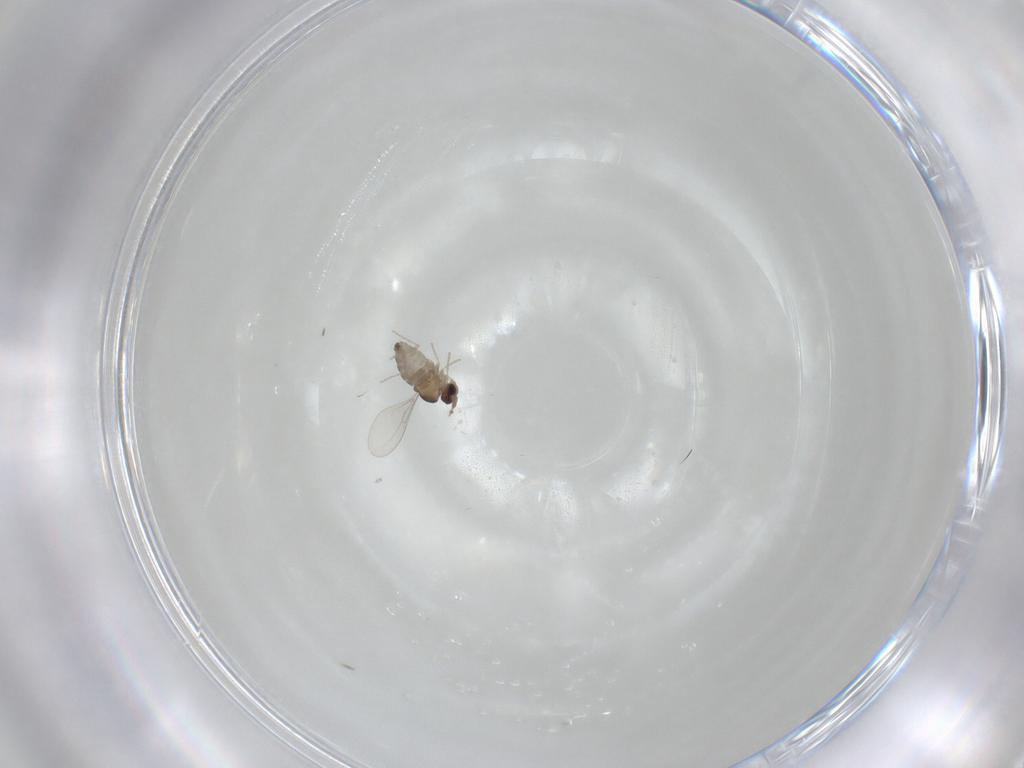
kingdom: Animalia
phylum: Arthropoda
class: Insecta
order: Diptera
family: Cecidomyiidae
